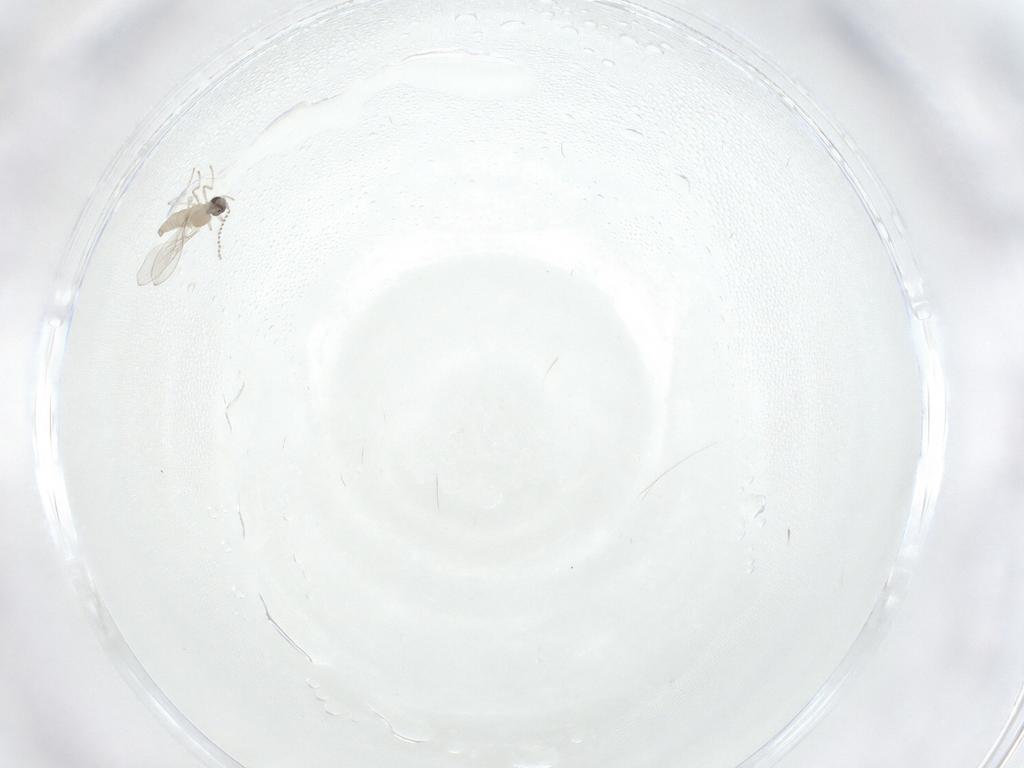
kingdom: Animalia
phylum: Arthropoda
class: Insecta
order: Diptera
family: Cecidomyiidae
